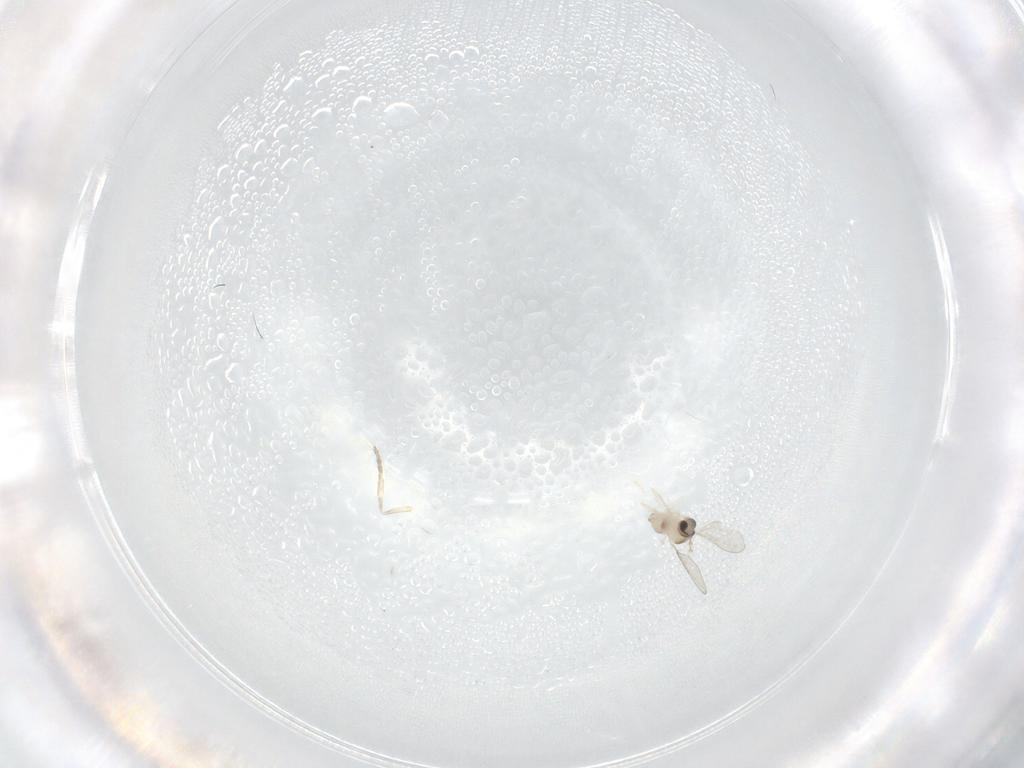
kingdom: Animalia
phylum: Arthropoda
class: Insecta
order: Diptera
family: Cecidomyiidae
